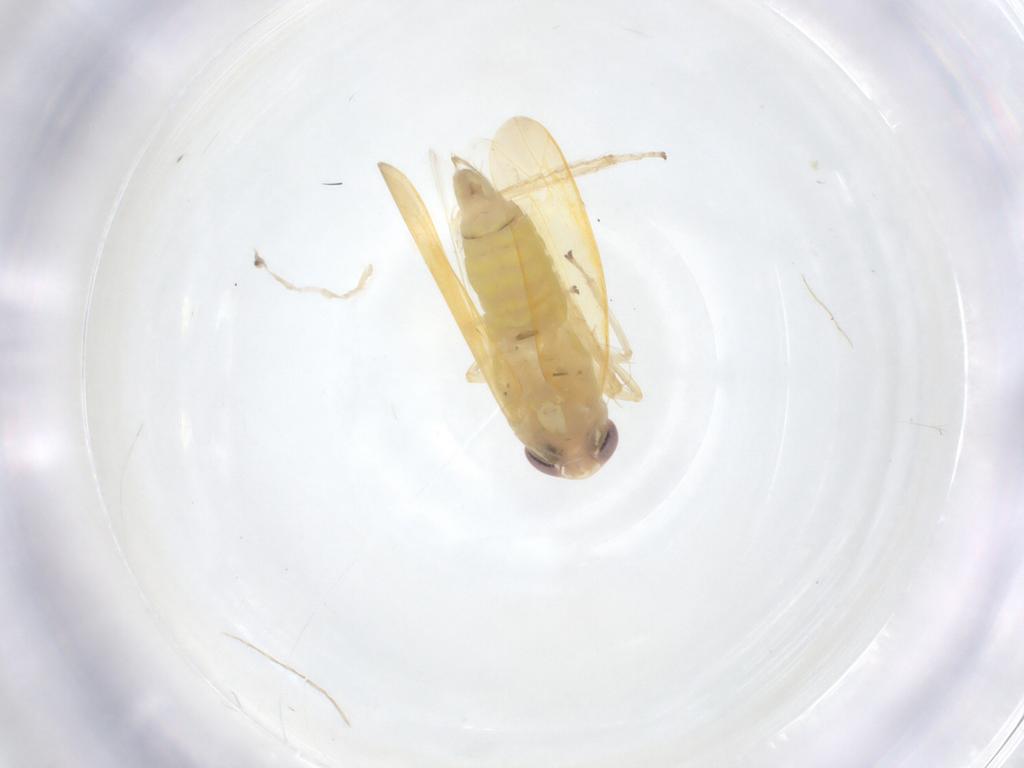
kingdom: Animalia
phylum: Arthropoda
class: Insecta
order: Hemiptera
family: Cicadellidae
